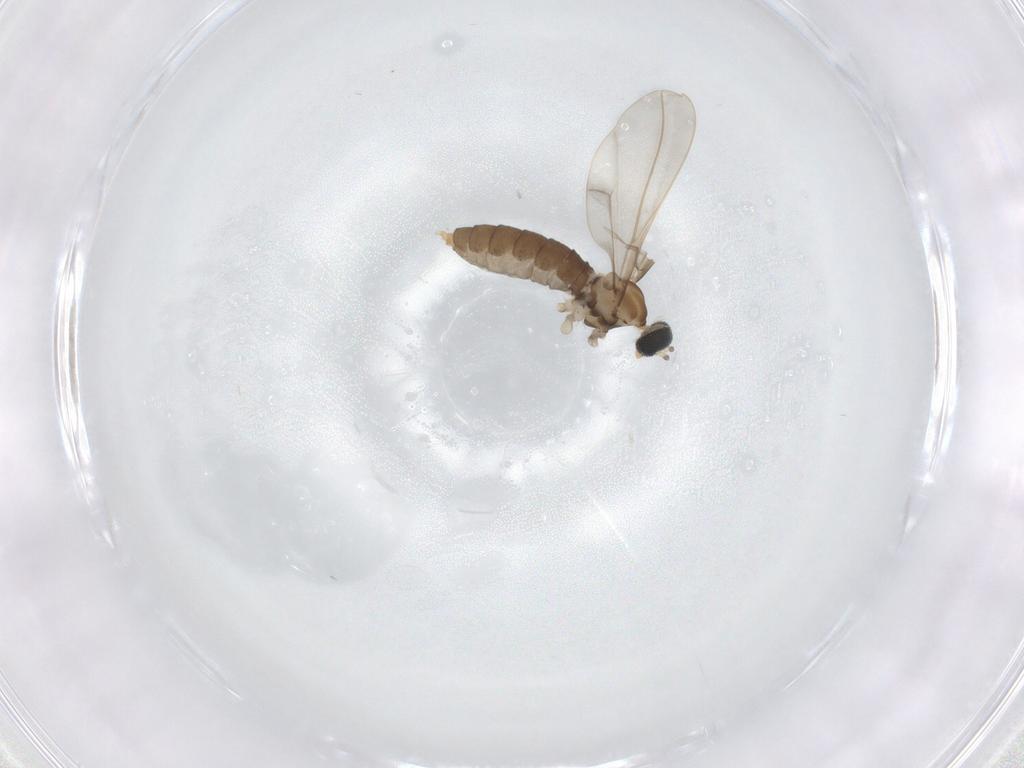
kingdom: Animalia
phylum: Arthropoda
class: Insecta
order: Diptera
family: Cecidomyiidae
